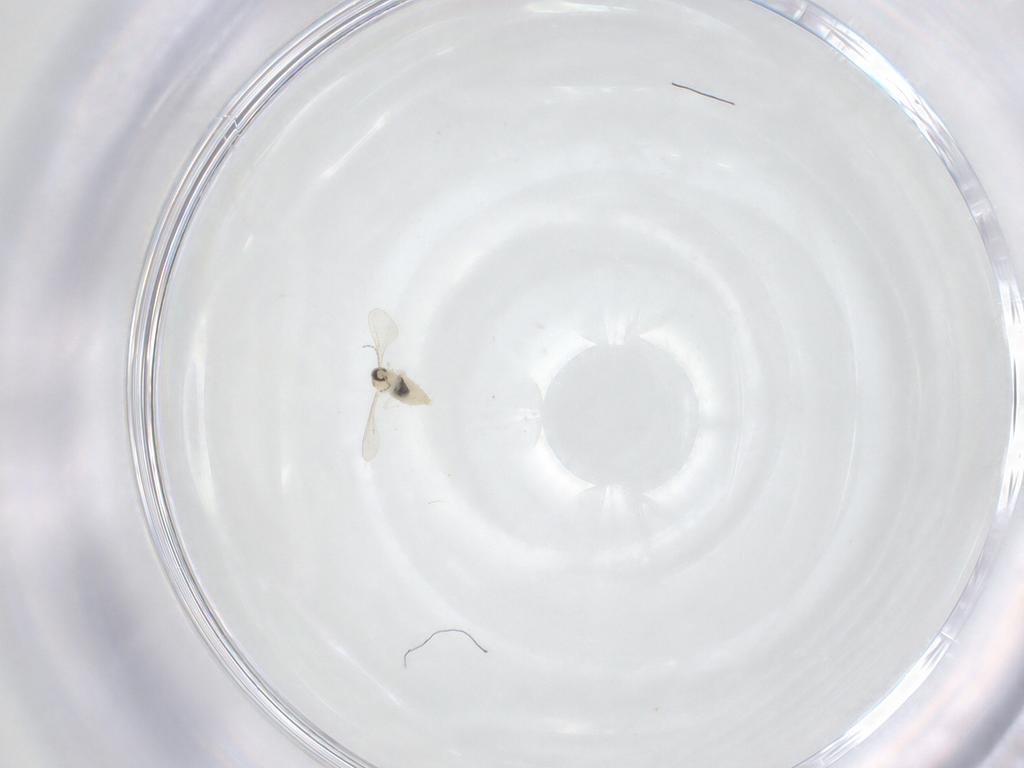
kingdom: Animalia
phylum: Arthropoda
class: Insecta
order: Diptera
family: Cecidomyiidae
